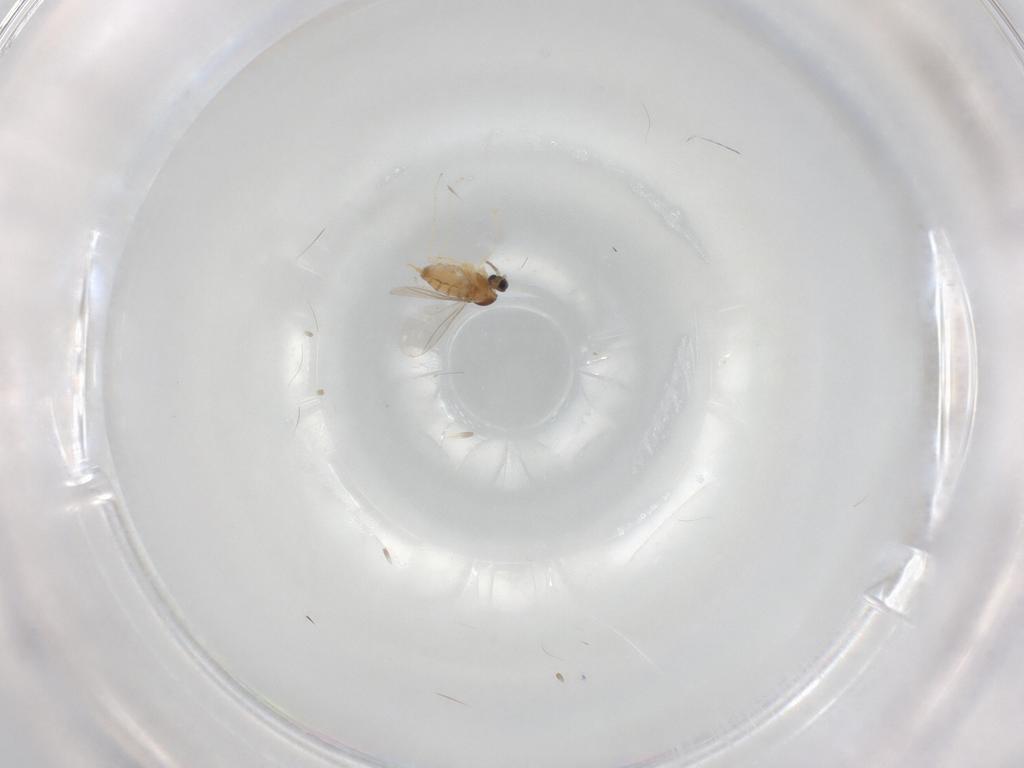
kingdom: Animalia
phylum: Arthropoda
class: Insecta
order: Diptera
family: Cecidomyiidae
